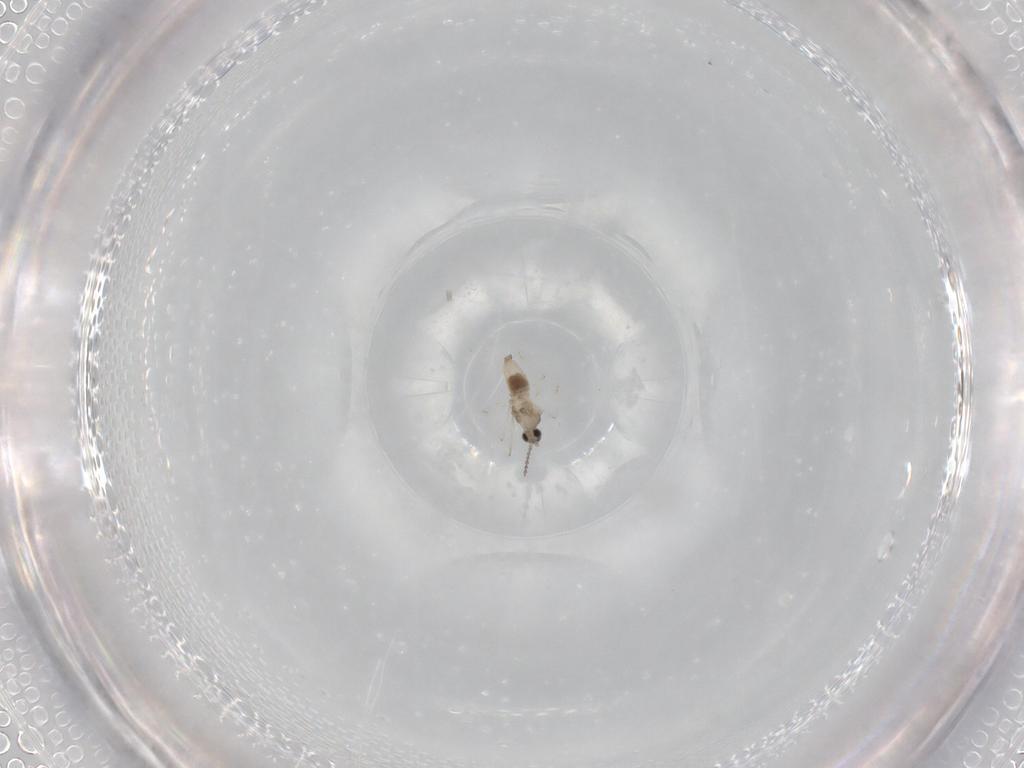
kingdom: Animalia
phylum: Arthropoda
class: Insecta
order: Diptera
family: Cecidomyiidae
